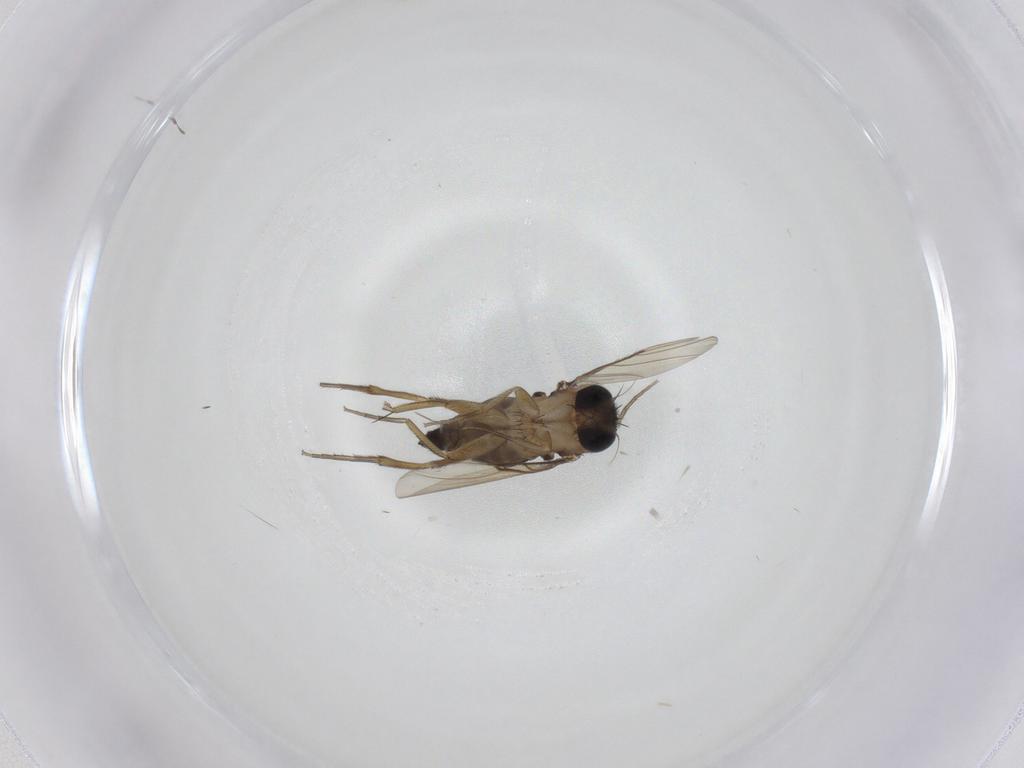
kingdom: Animalia
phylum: Arthropoda
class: Insecta
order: Diptera
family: Phoridae
